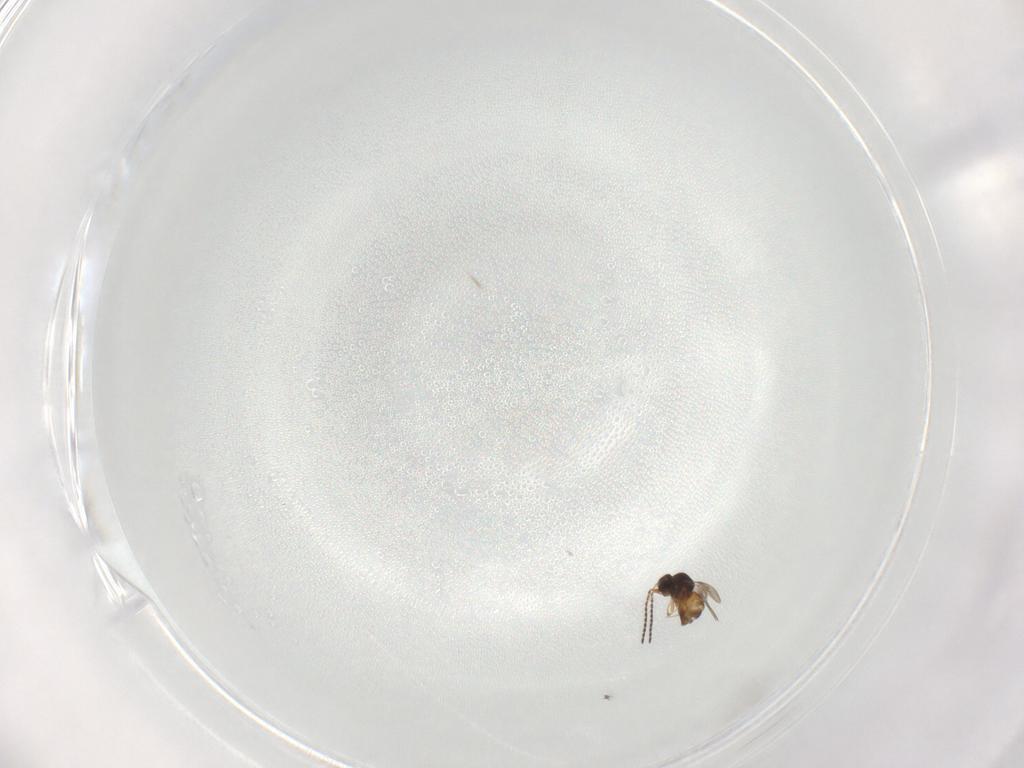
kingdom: Animalia
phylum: Arthropoda
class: Insecta
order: Diptera
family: Cecidomyiidae
